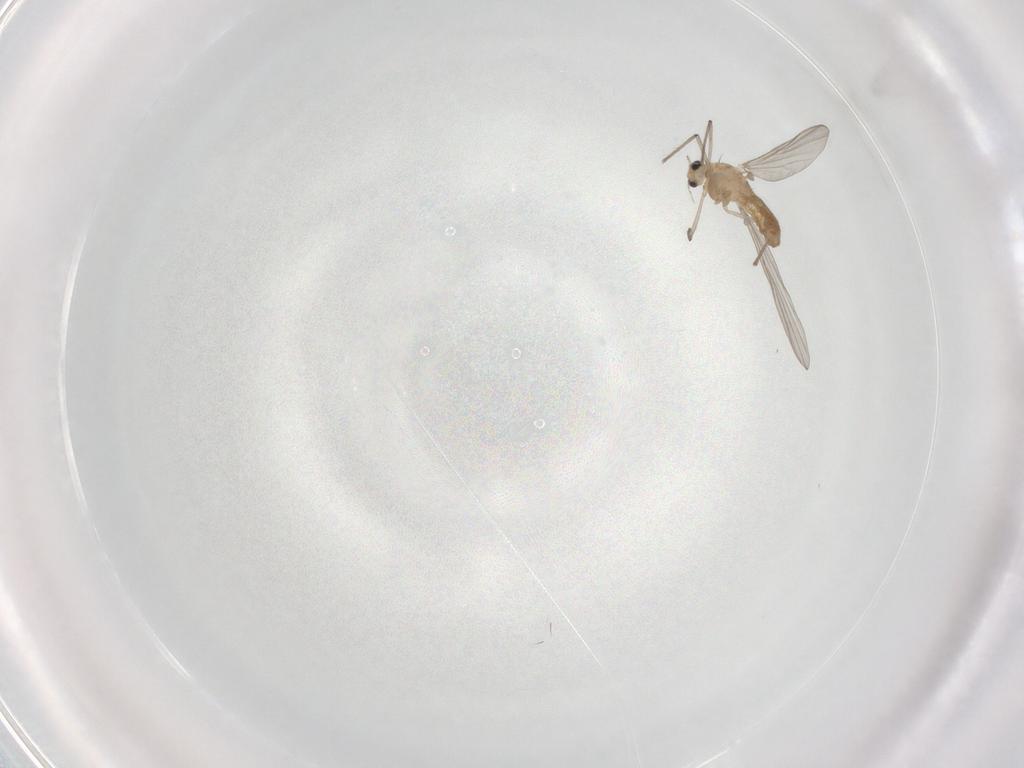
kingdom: Animalia
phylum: Arthropoda
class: Insecta
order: Diptera
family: Chironomidae
